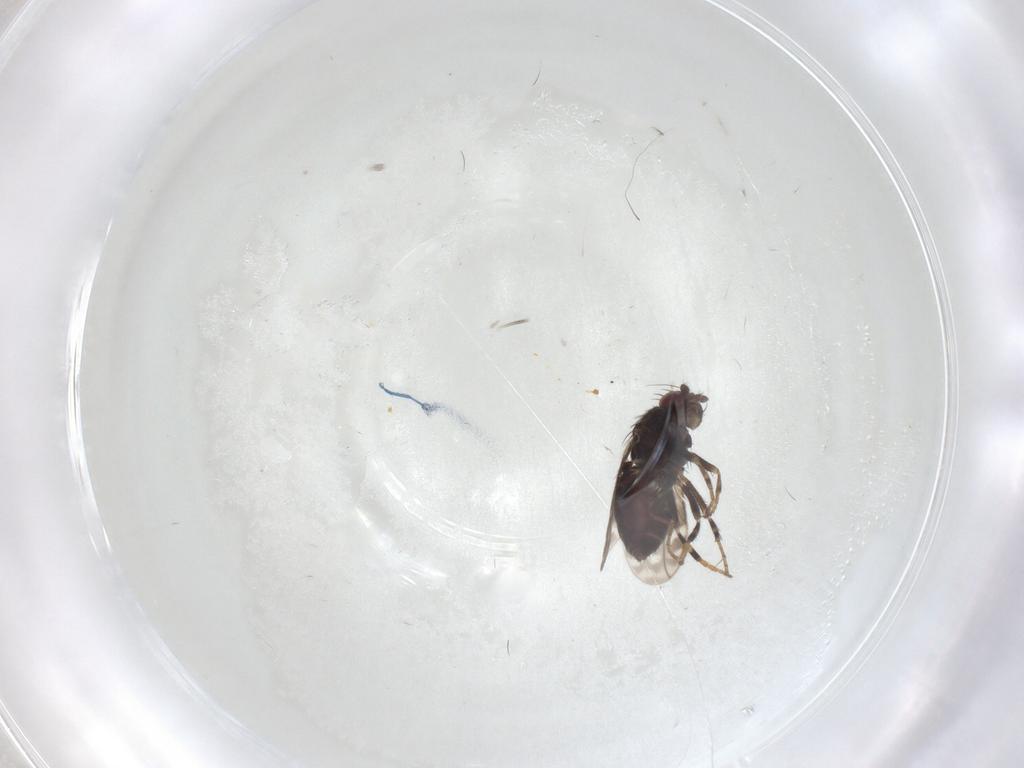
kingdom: Animalia
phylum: Arthropoda
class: Insecta
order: Diptera
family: Sphaeroceridae
